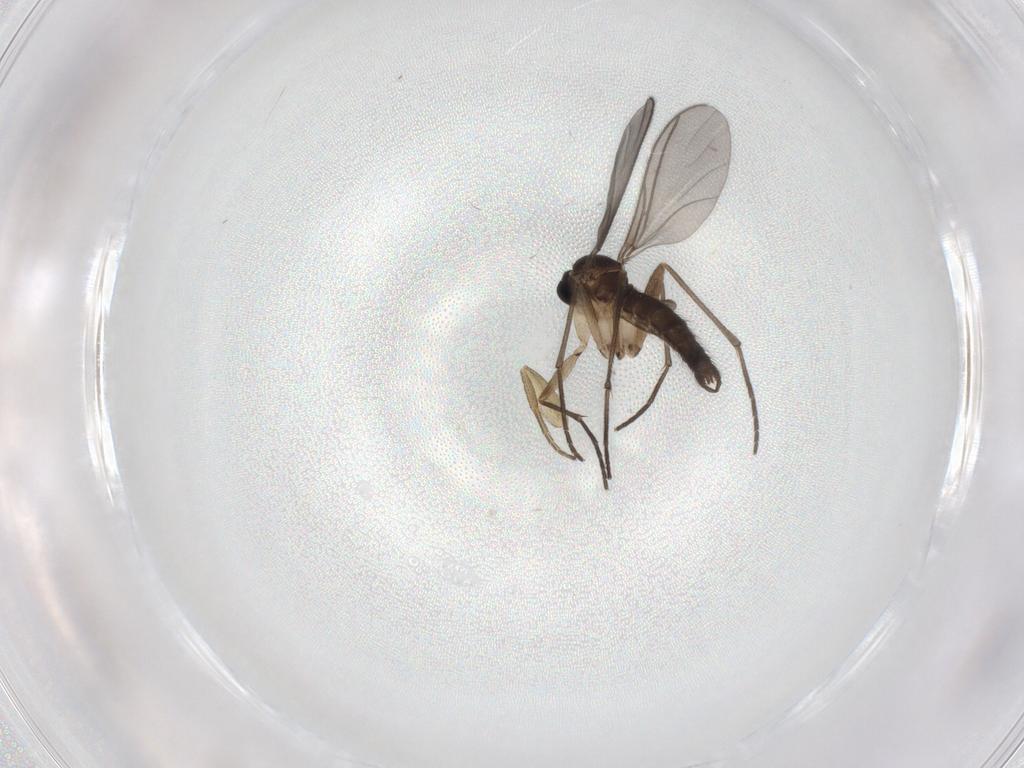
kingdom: Animalia
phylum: Arthropoda
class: Insecta
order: Diptera
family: Sciaridae
